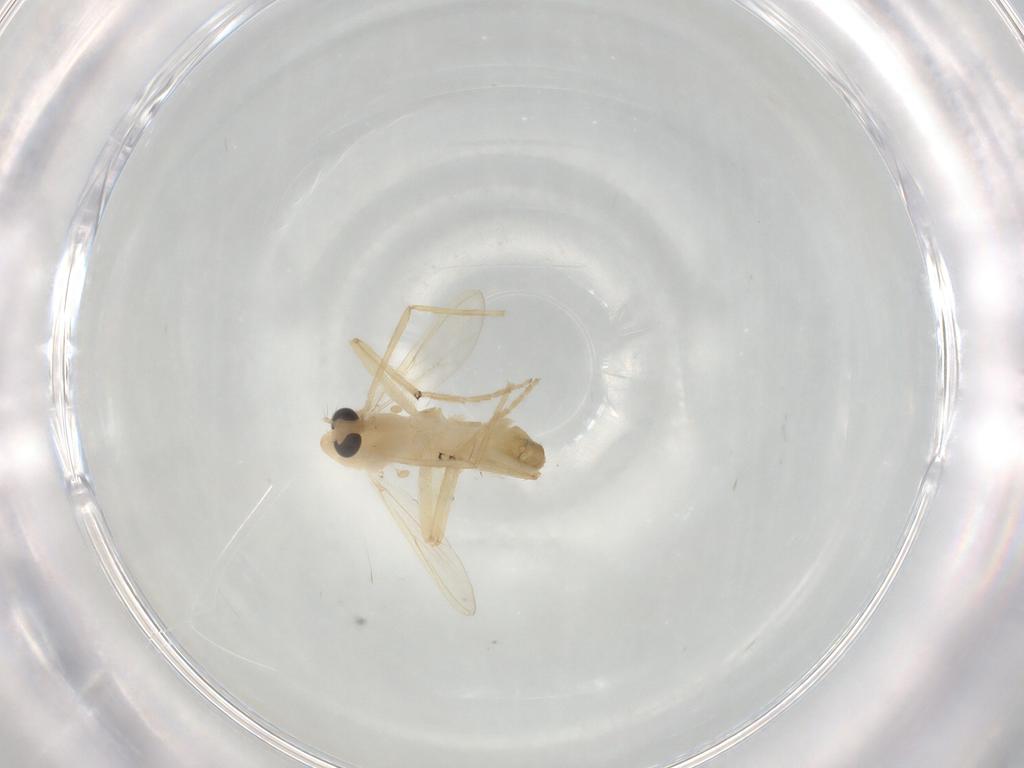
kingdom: Animalia
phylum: Arthropoda
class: Insecta
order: Diptera
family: Chironomidae
